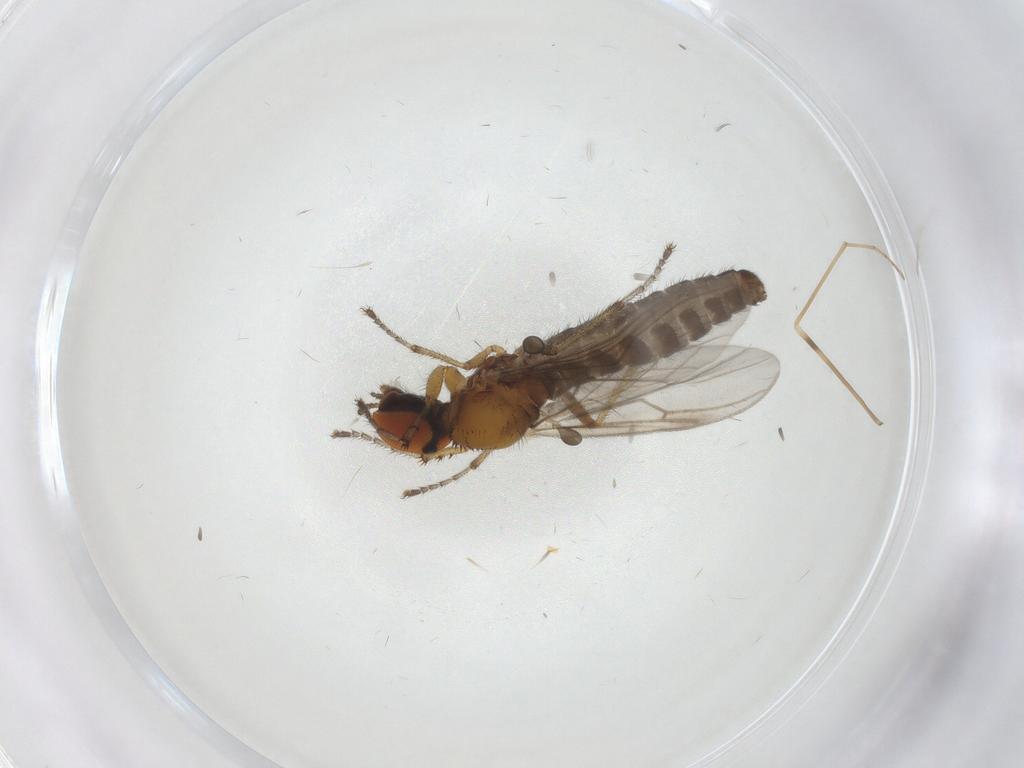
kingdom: Animalia
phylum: Arthropoda
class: Insecta
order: Diptera
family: Bibionidae
